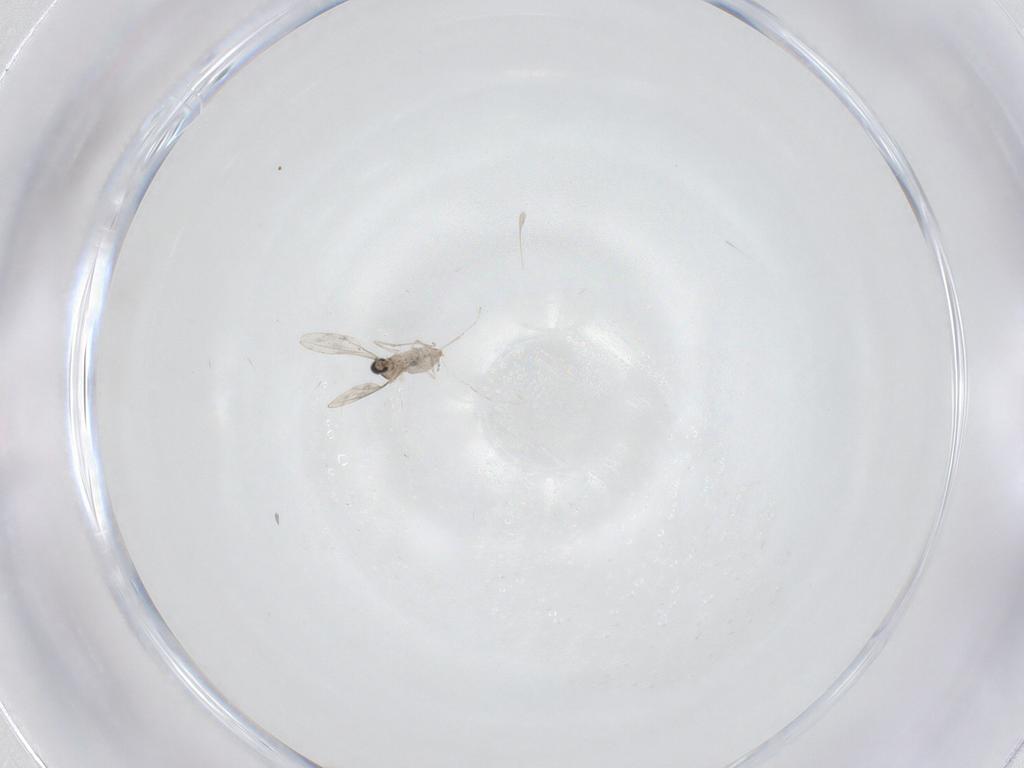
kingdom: Animalia
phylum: Arthropoda
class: Insecta
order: Diptera
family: Cecidomyiidae
